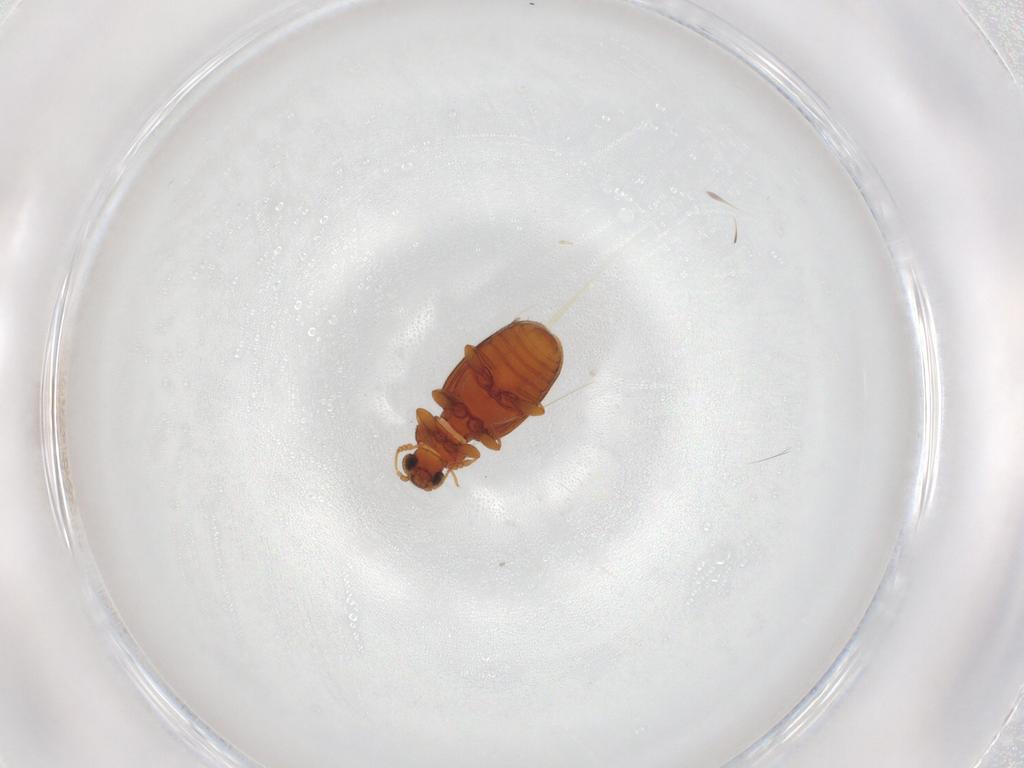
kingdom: Animalia
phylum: Arthropoda
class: Insecta
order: Coleoptera
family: Latridiidae
